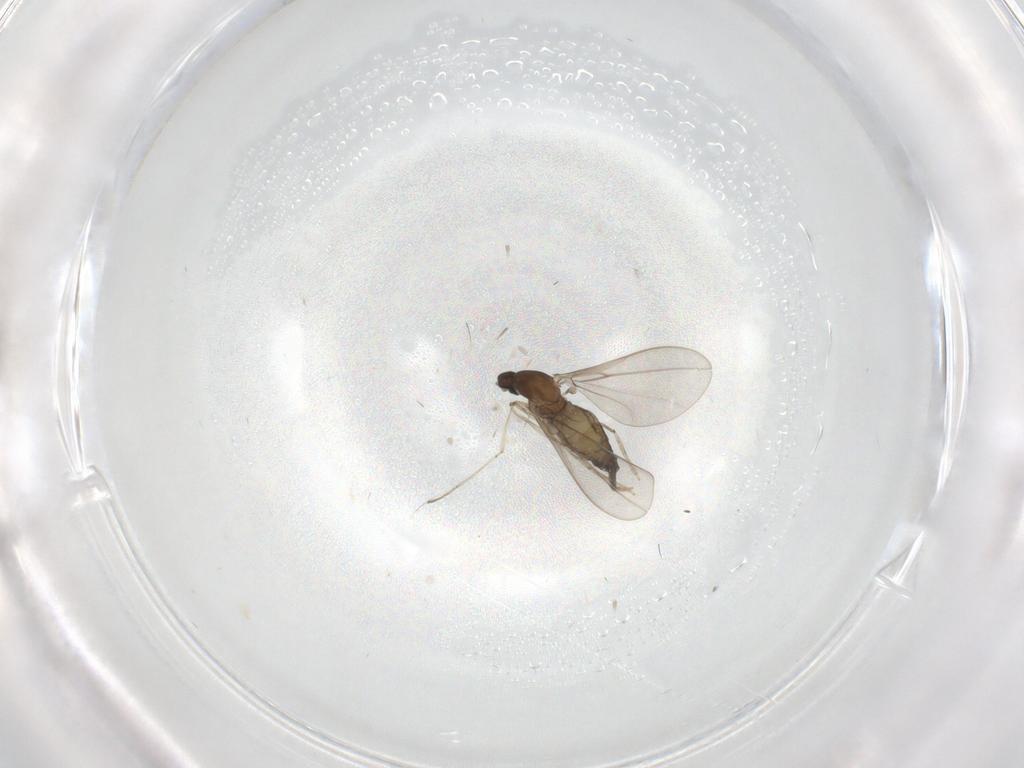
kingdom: Animalia
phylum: Arthropoda
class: Insecta
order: Diptera
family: Cecidomyiidae
